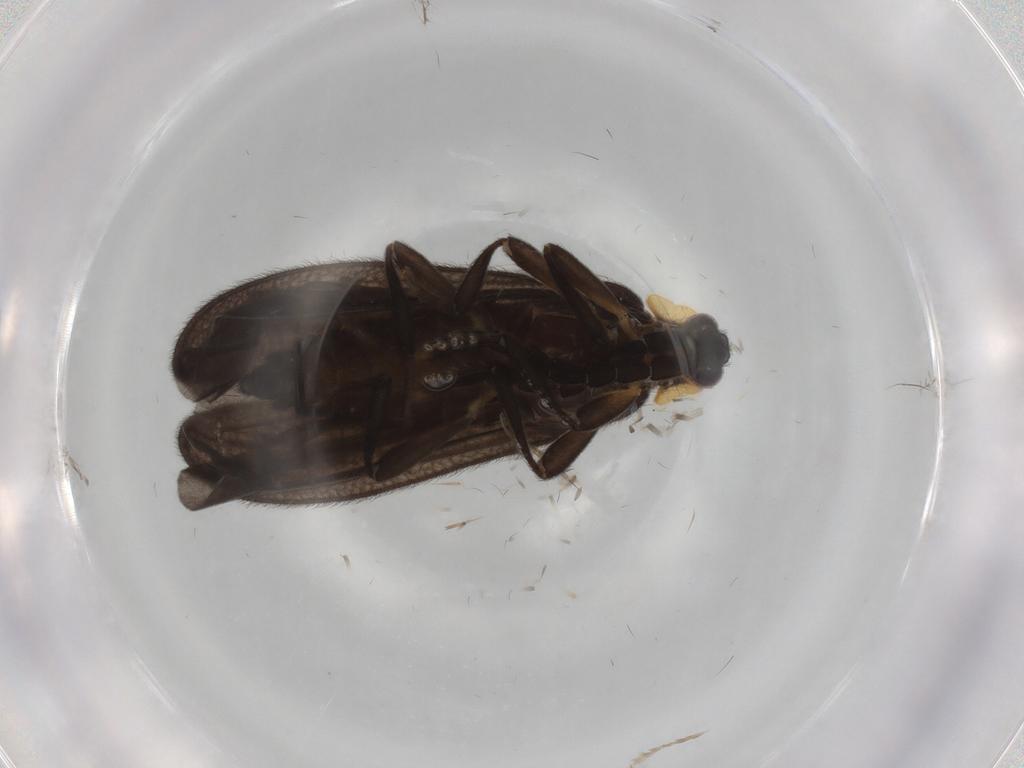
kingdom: Animalia
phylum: Arthropoda
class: Insecta
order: Coleoptera
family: Lycidae
